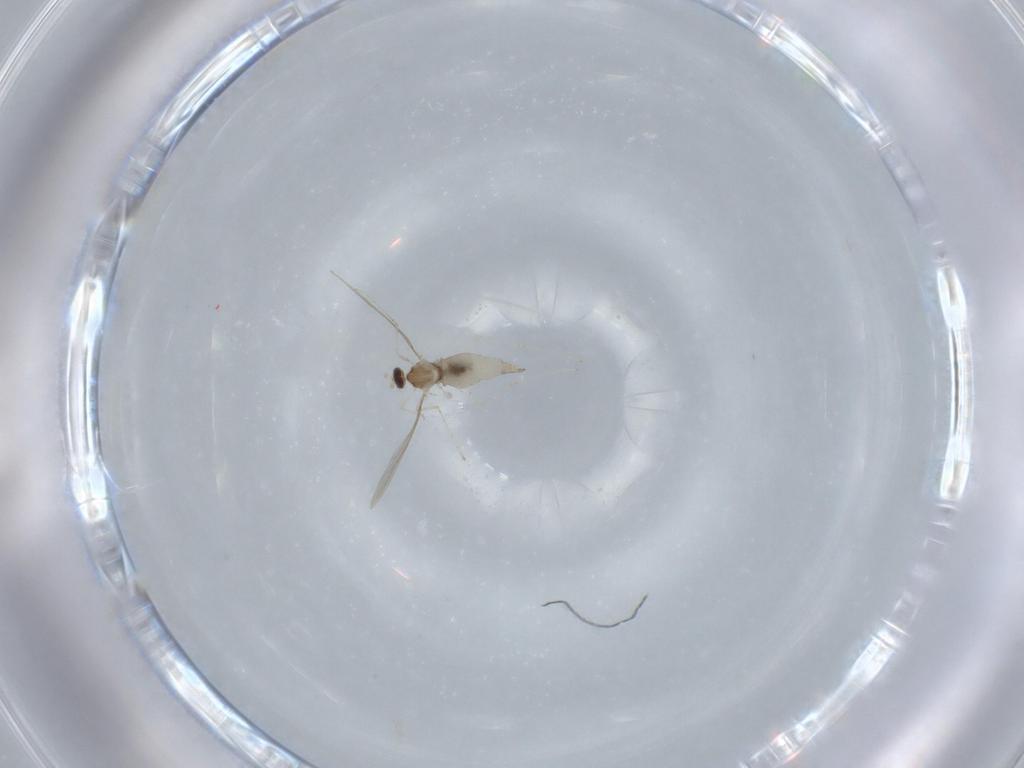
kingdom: Animalia
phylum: Arthropoda
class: Insecta
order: Diptera
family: Cecidomyiidae
